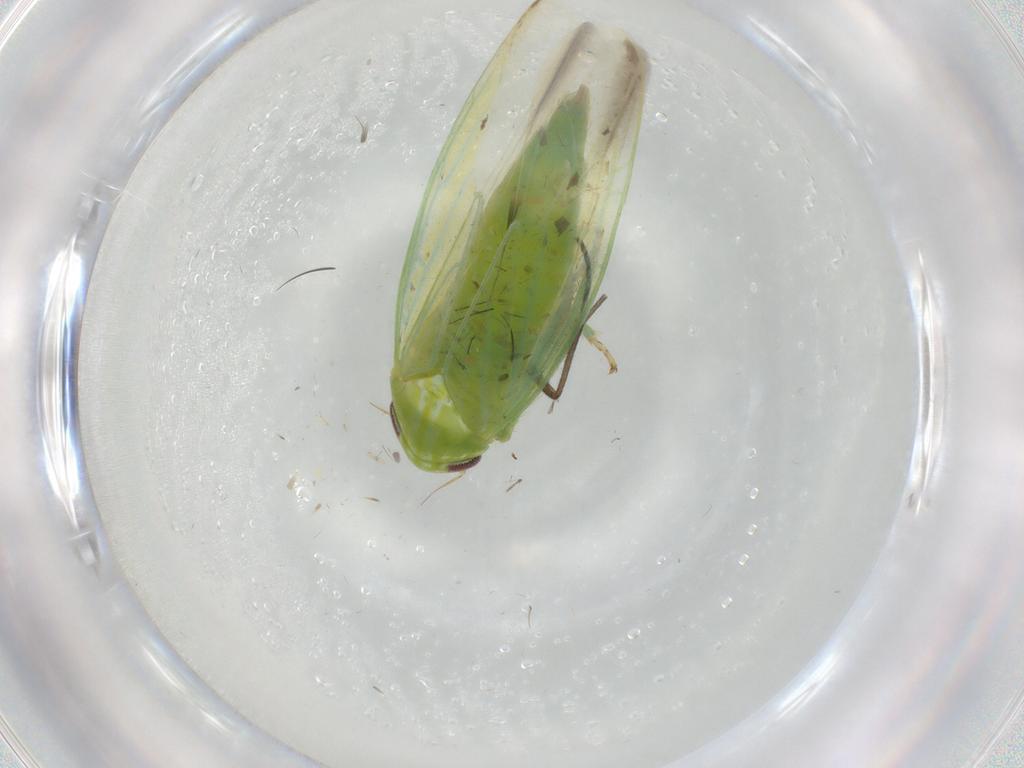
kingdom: Animalia
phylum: Arthropoda
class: Insecta
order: Hemiptera
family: Cicadellidae
